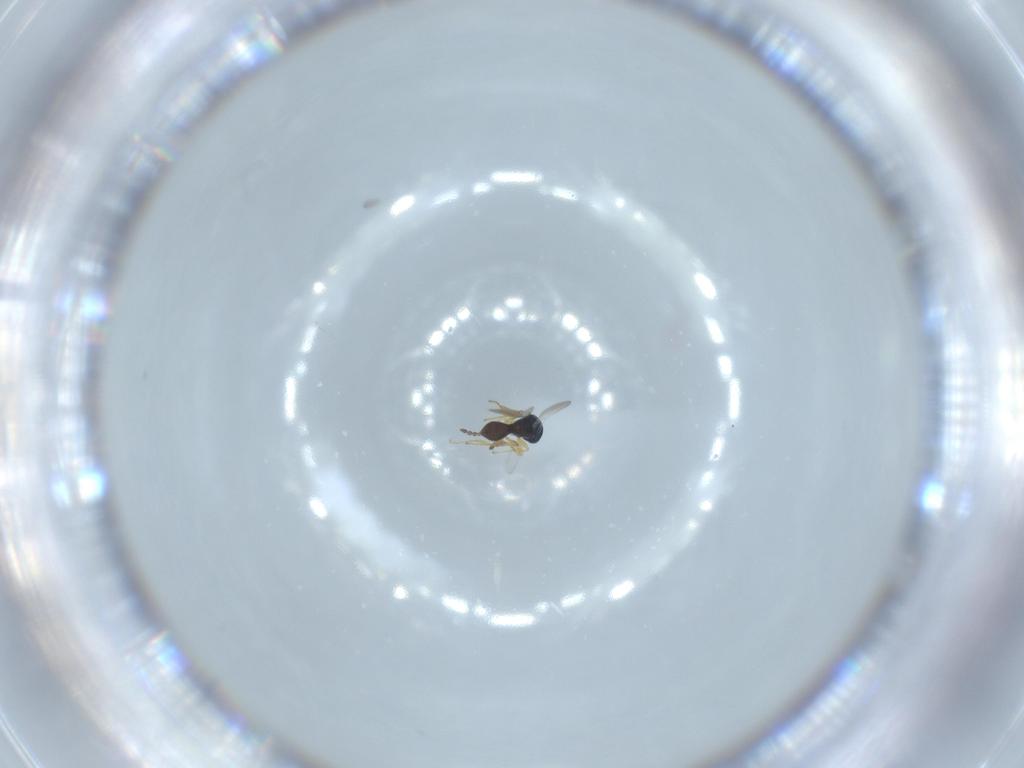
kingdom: Animalia
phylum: Arthropoda
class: Insecta
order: Hymenoptera
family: Platygastridae
